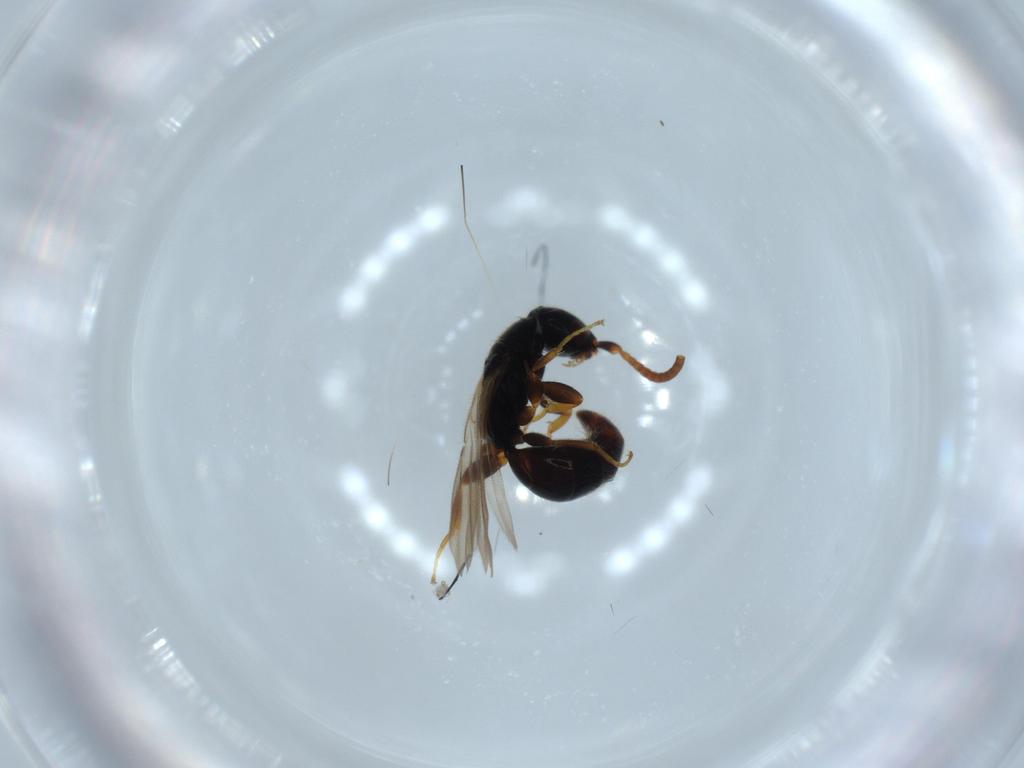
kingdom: Animalia
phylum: Arthropoda
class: Insecta
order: Hymenoptera
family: Bethylidae
